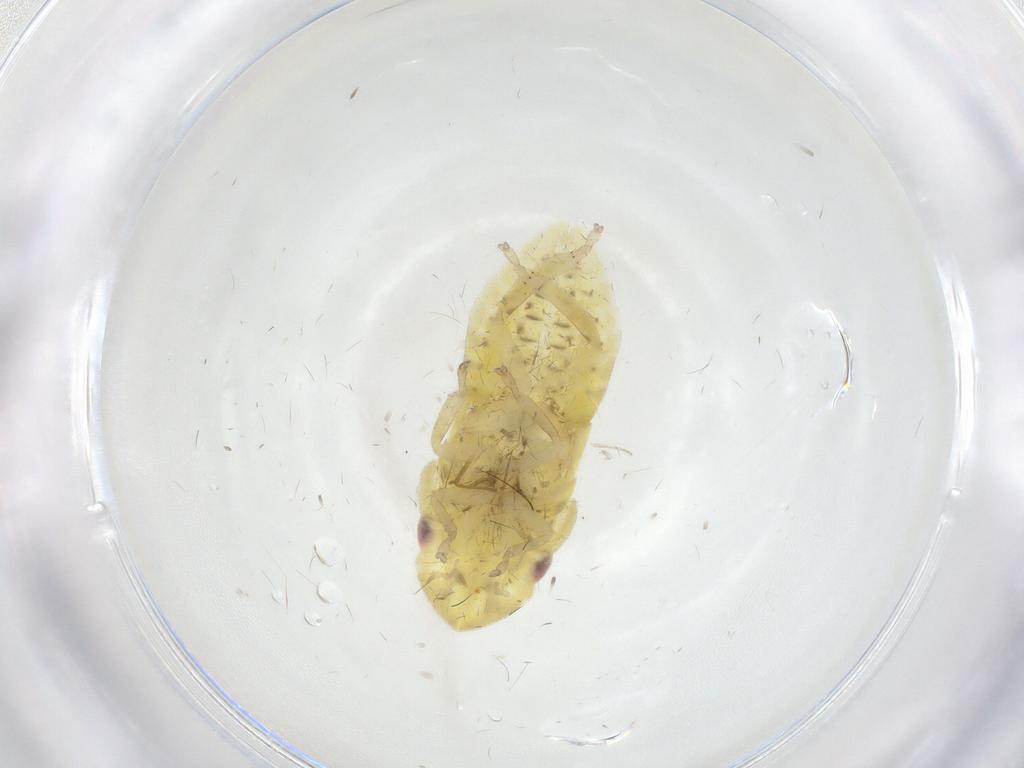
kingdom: Animalia
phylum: Arthropoda
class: Insecta
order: Hemiptera
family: Cicadellidae
